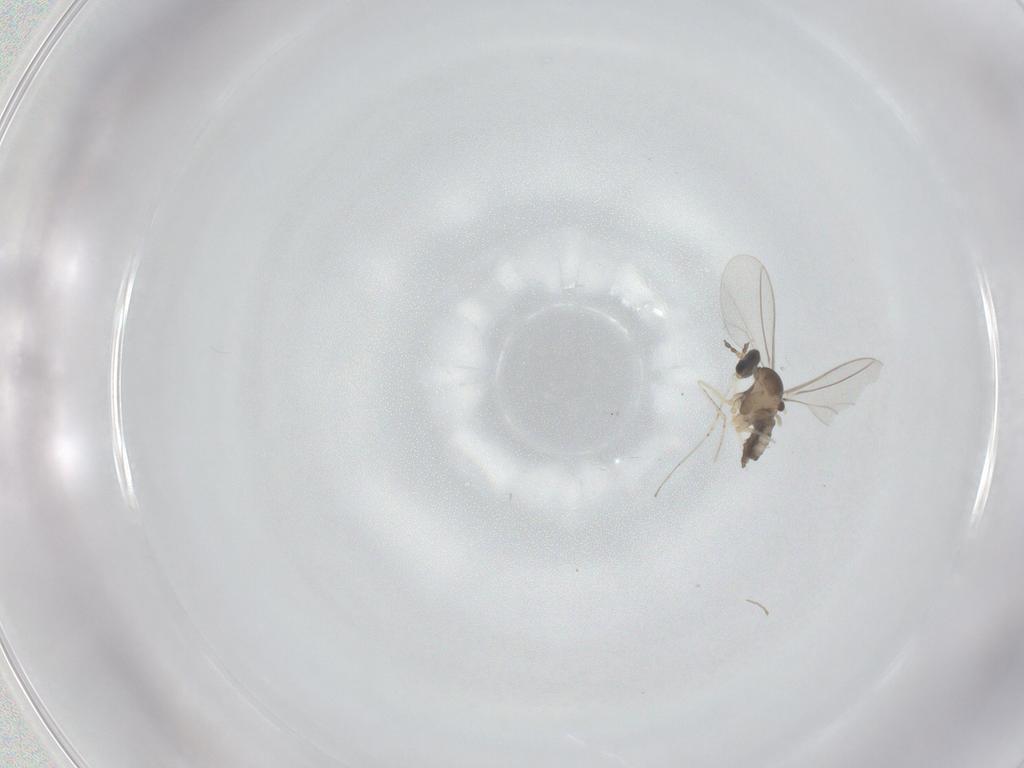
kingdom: Animalia
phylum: Arthropoda
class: Insecta
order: Diptera
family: Cecidomyiidae
